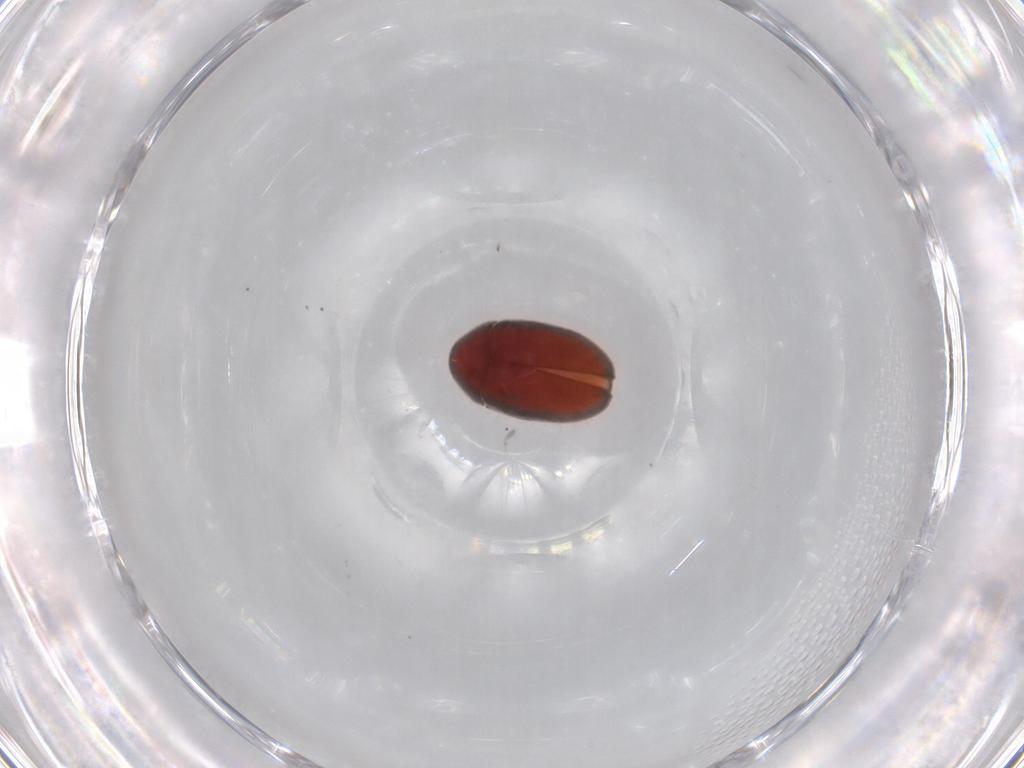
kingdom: Animalia
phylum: Arthropoda
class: Insecta
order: Coleoptera
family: Ptinidae
